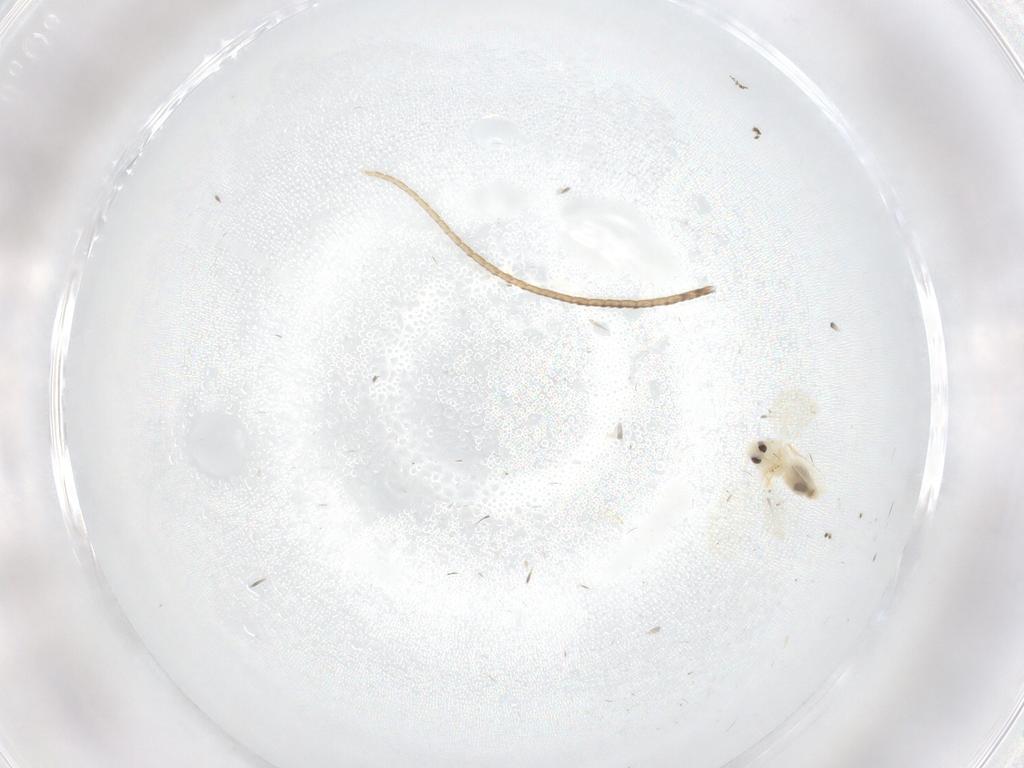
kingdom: Animalia
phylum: Arthropoda
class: Insecta
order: Hemiptera
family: Aleyrodidae
